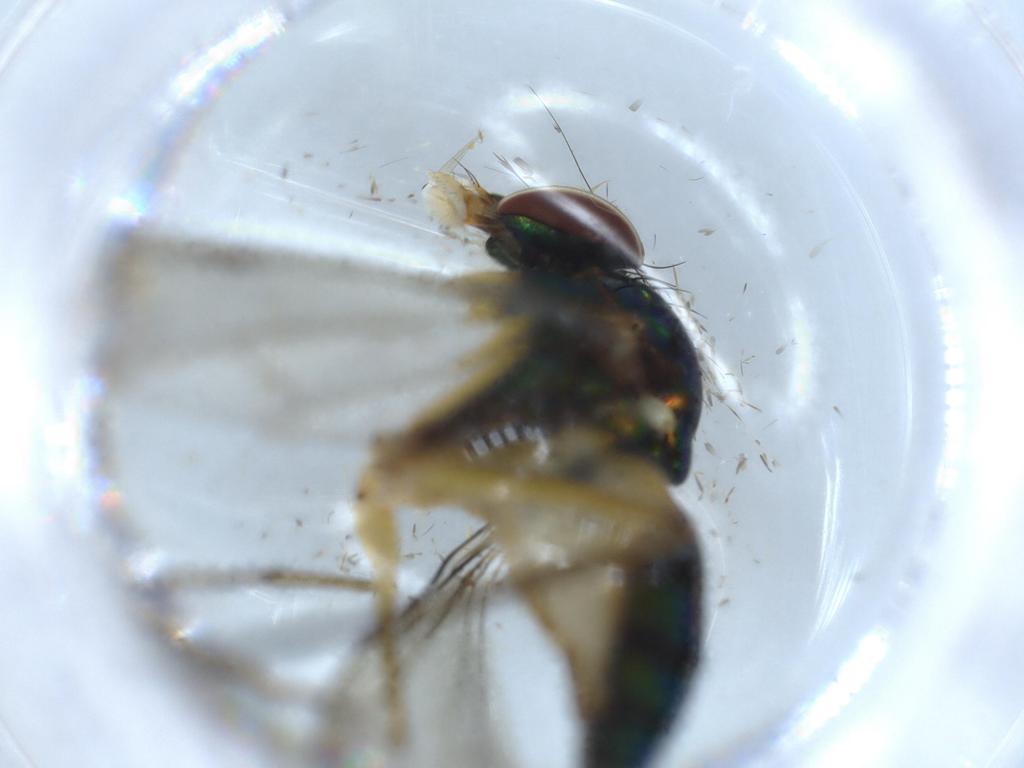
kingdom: Animalia
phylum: Arthropoda
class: Insecta
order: Diptera
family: Dolichopodidae
